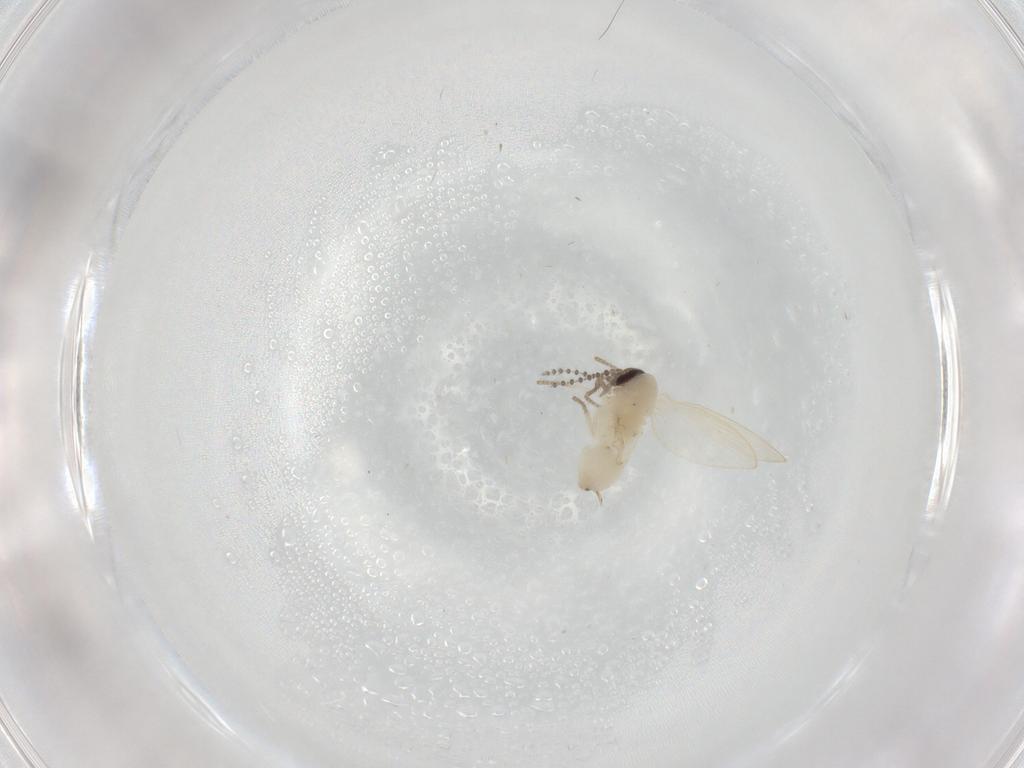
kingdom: Animalia
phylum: Arthropoda
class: Insecta
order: Diptera
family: Psychodidae
